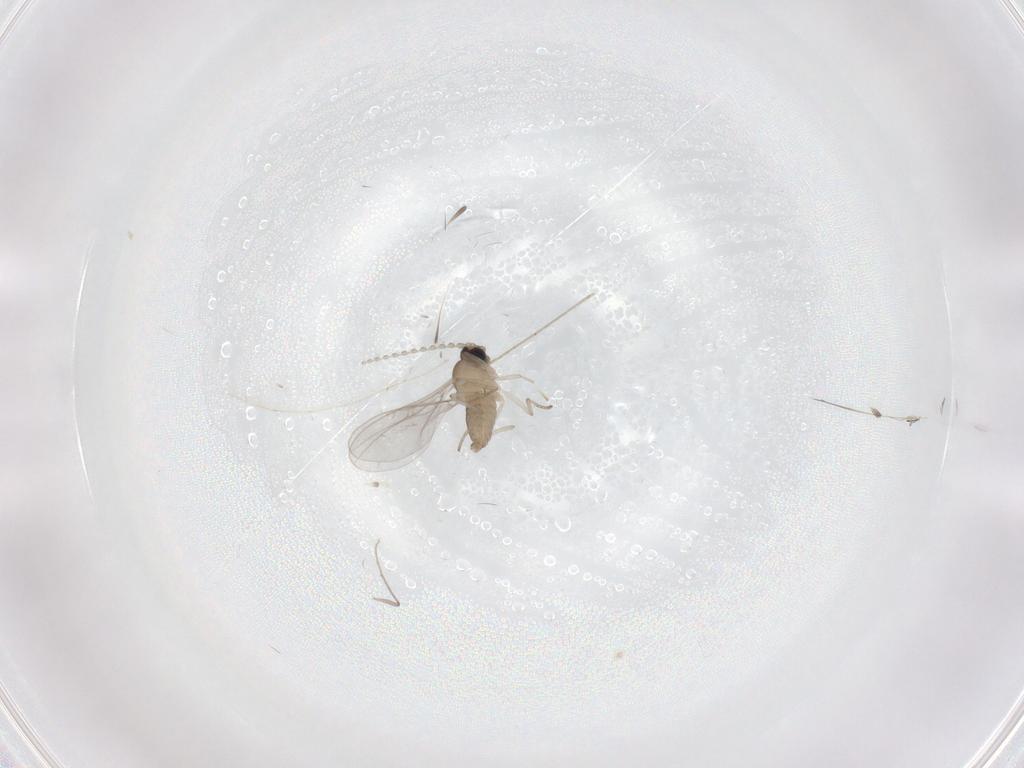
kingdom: Animalia
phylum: Arthropoda
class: Insecta
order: Diptera
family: Cecidomyiidae
